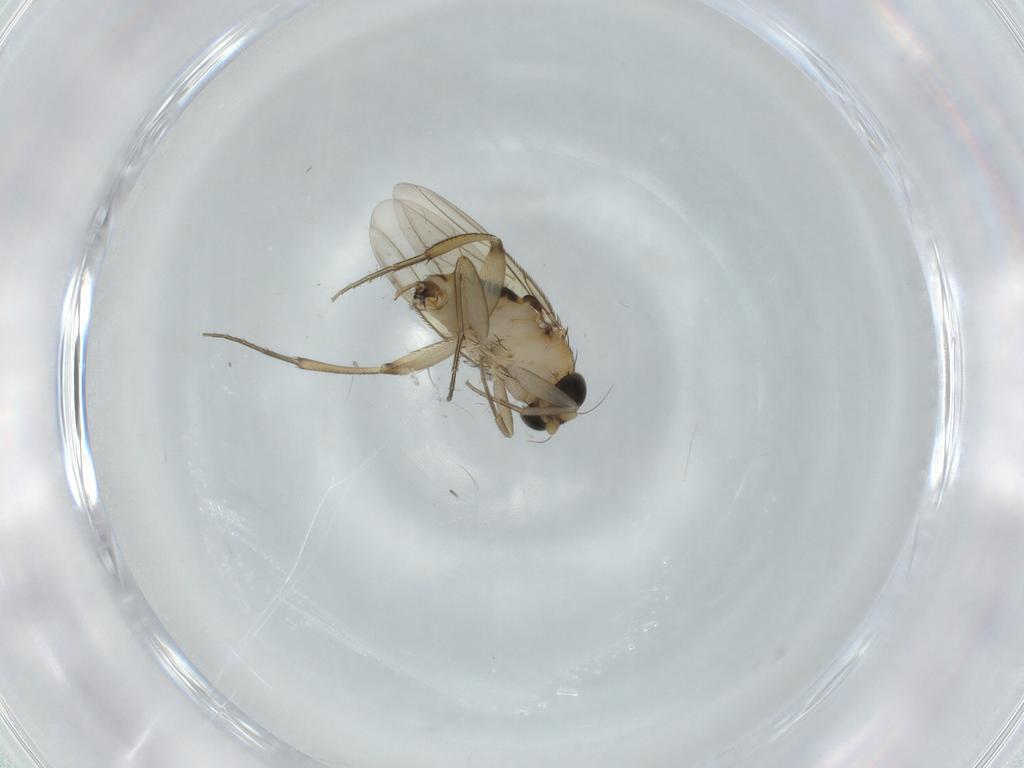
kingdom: Animalia
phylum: Arthropoda
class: Insecta
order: Diptera
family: Phoridae
